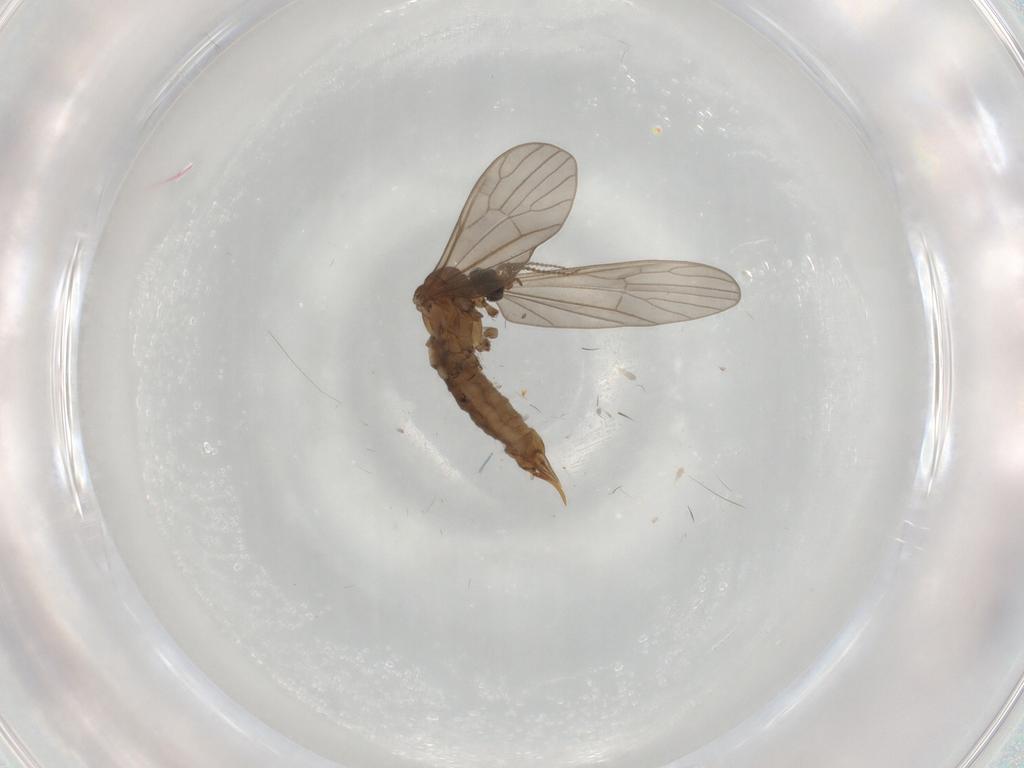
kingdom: Animalia
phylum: Arthropoda
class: Insecta
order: Diptera
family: Limoniidae
